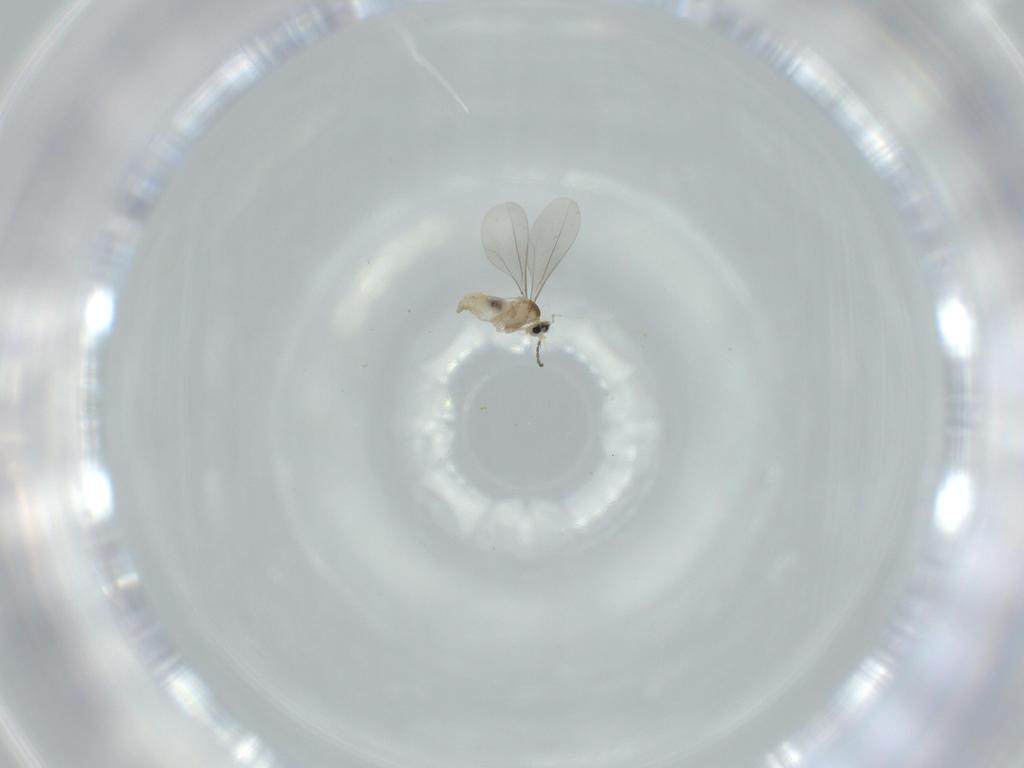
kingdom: Animalia
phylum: Arthropoda
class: Insecta
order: Diptera
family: Cecidomyiidae
